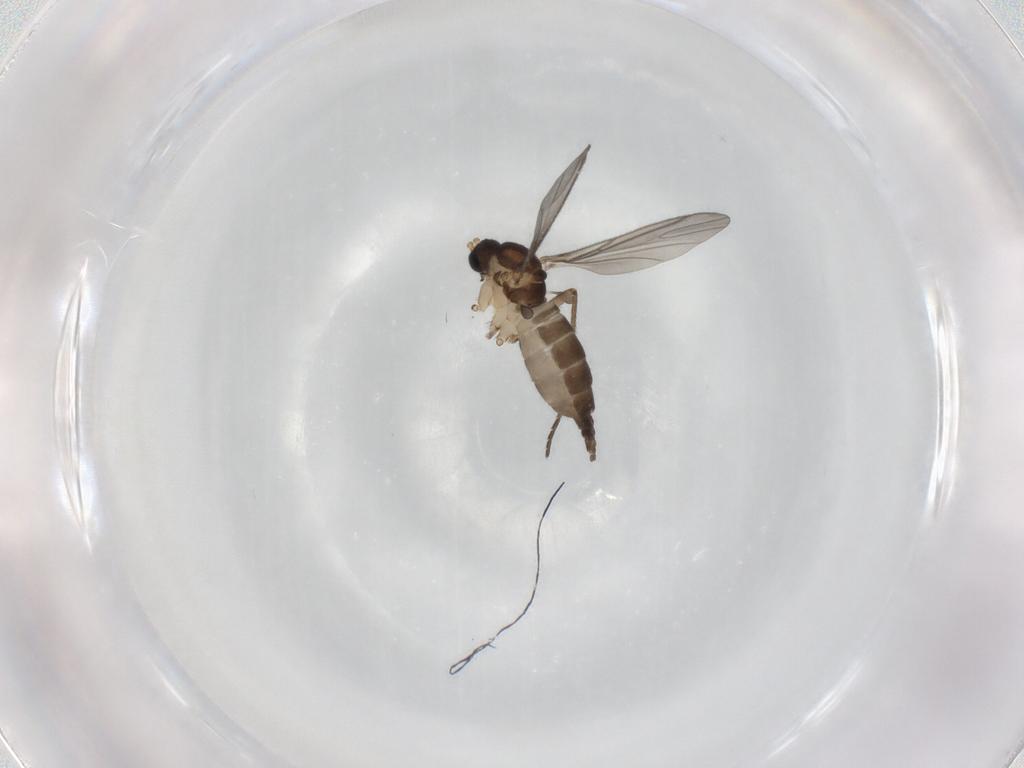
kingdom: Animalia
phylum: Arthropoda
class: Insecta
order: Diptera
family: Sciaridae
